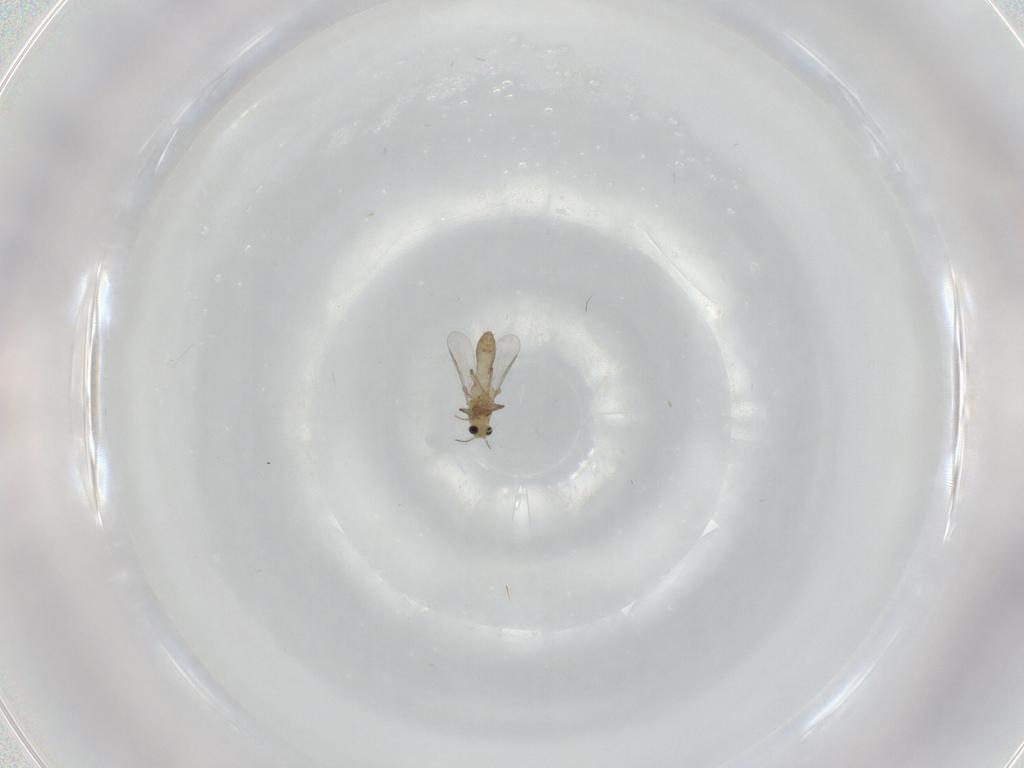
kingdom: Animalia
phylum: Arthropoda
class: Insecta
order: Diptera
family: Chironomidae
